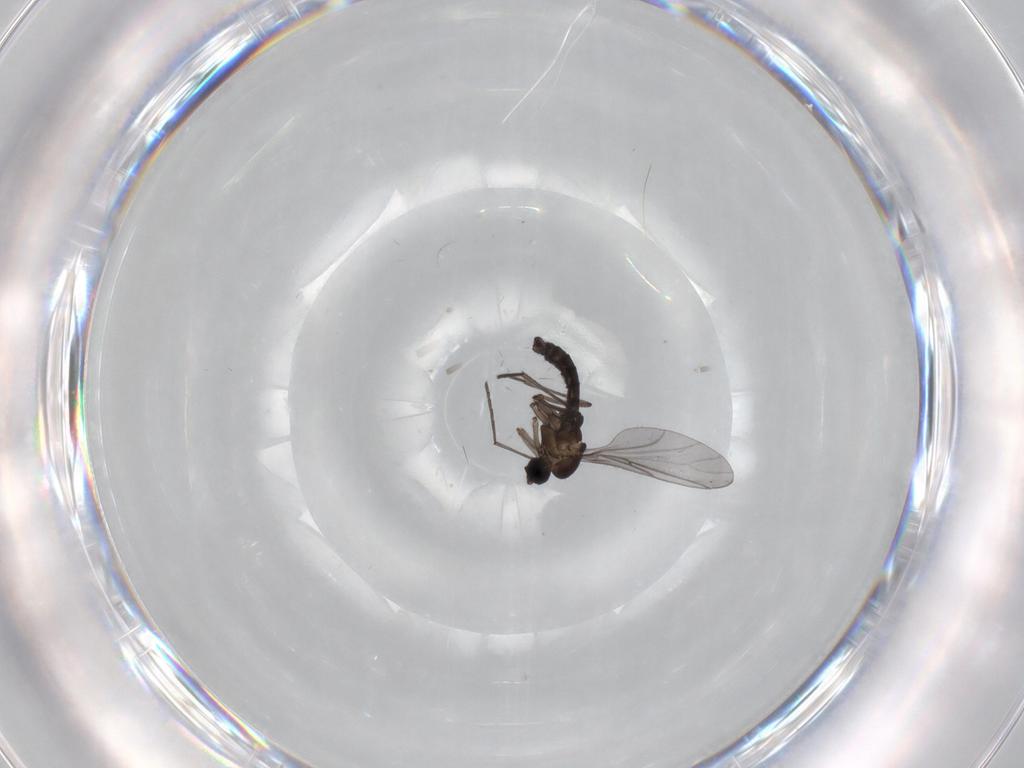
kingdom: Animalia
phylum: Arthropoda
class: Insecta
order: Diptera
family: Sciaridae
